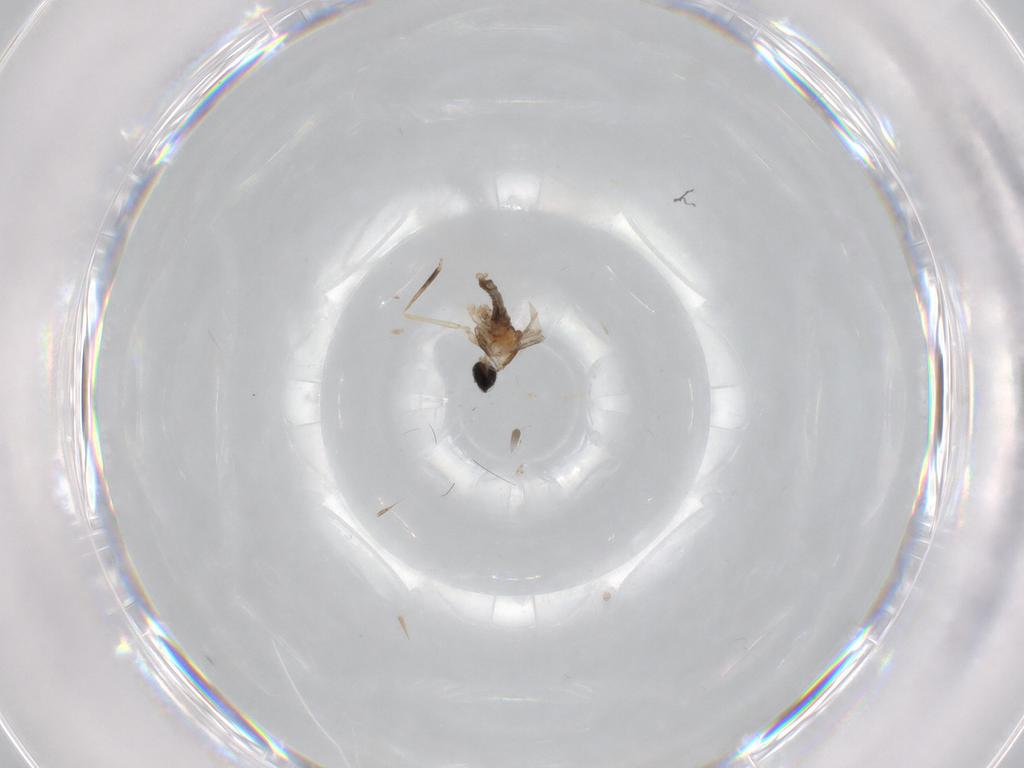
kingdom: Animalia
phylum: Arthropoda
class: Insecta
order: Diptera
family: Cecidomyiidae
